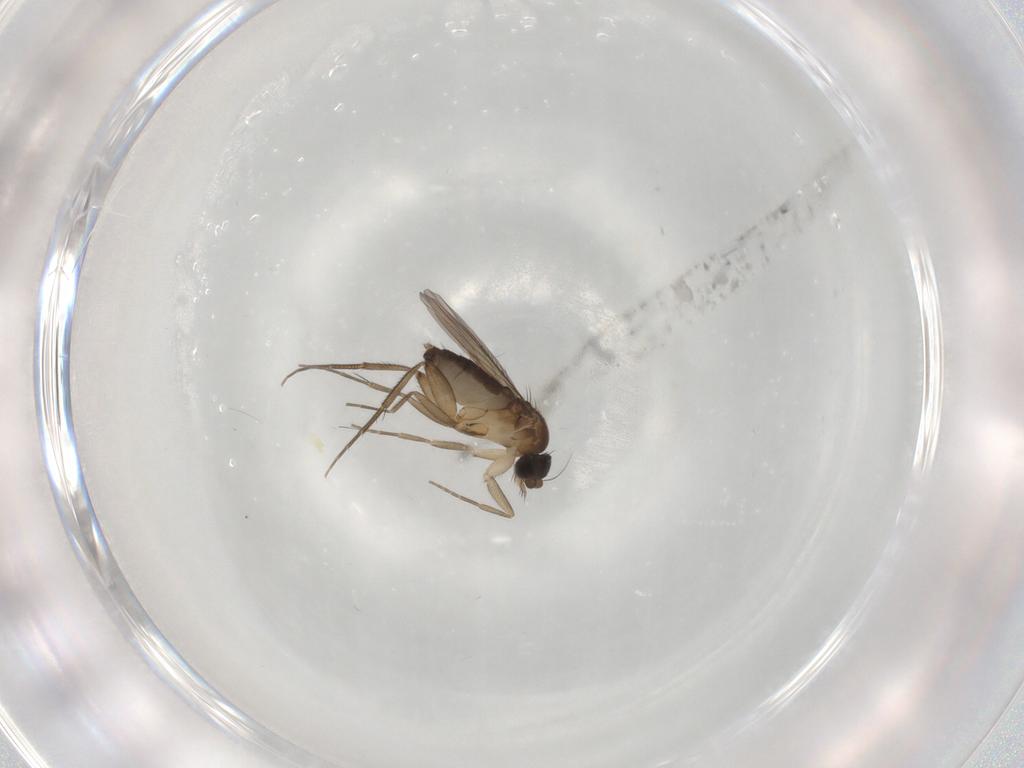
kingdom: Animalia
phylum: Arthropoda
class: Insecta
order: Diptera
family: Phoridae
